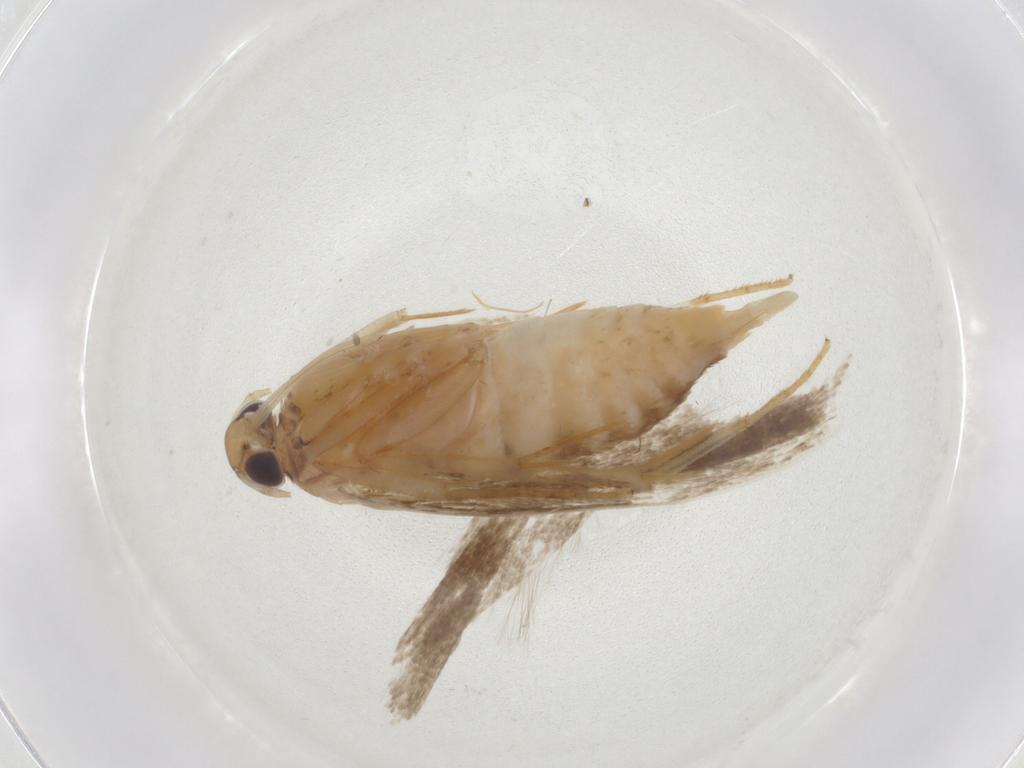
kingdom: Animalia
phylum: Arthropoda
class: Insecta
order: Lepidoptera
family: Gelechiidae
